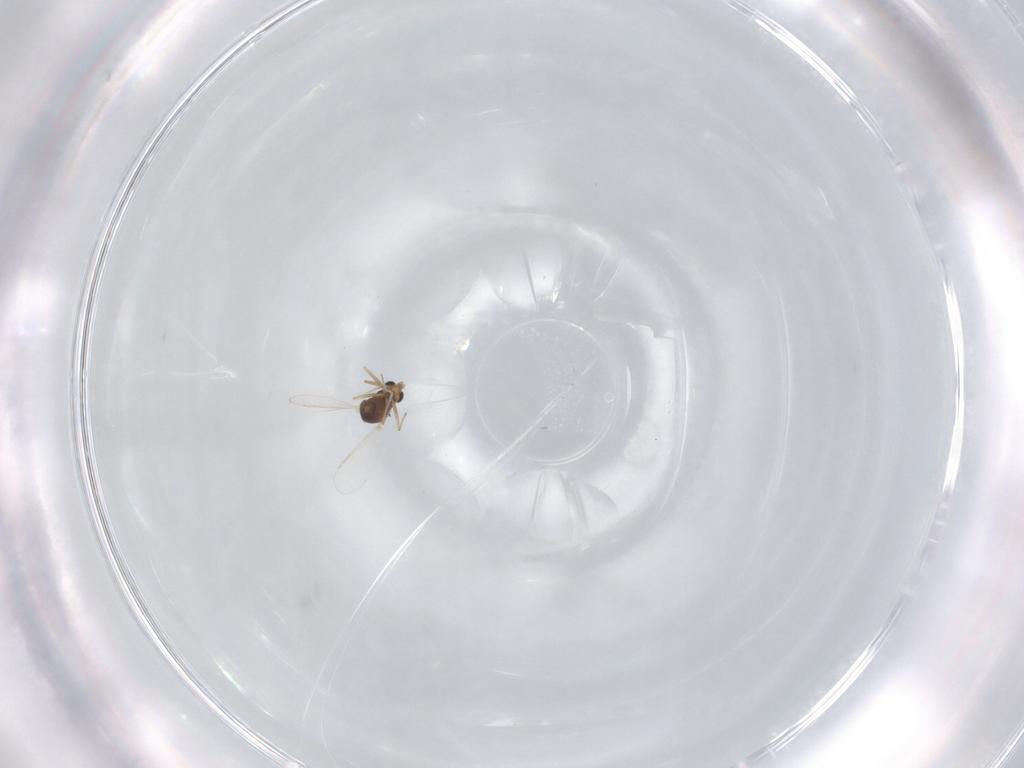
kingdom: Animalia
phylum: Arthropoda
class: Insecta
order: Diptera
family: Chironomidae
